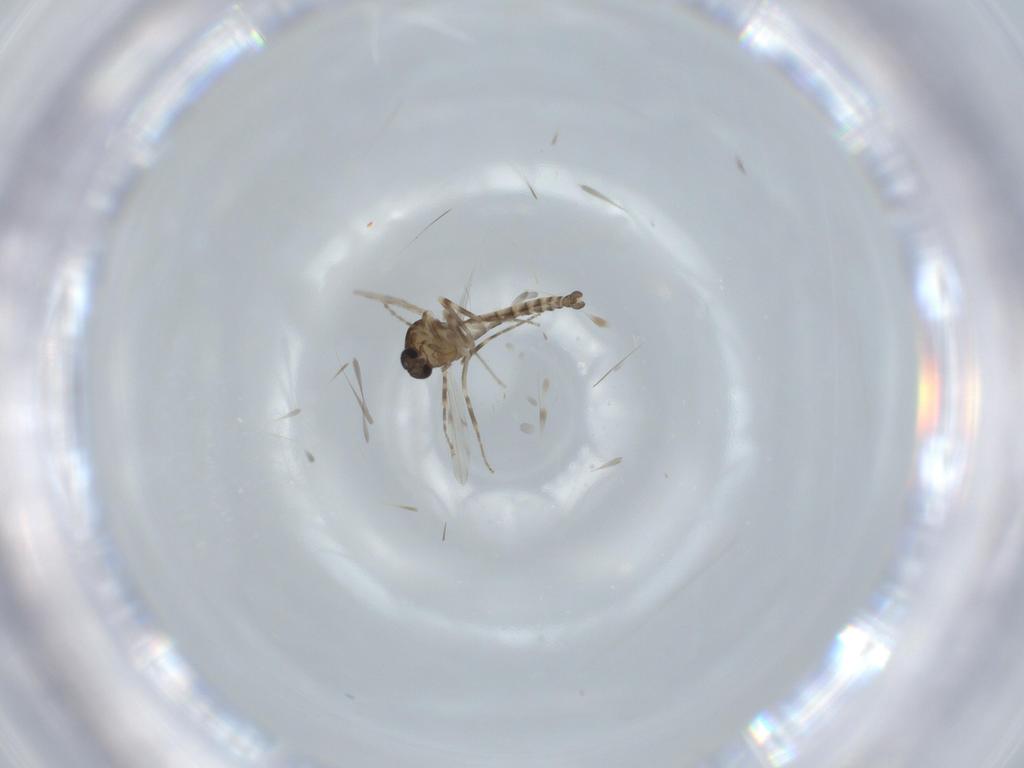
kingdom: Animalia
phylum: Arthropoda
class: Insecta
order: Diptera
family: Ceratopogonidae
